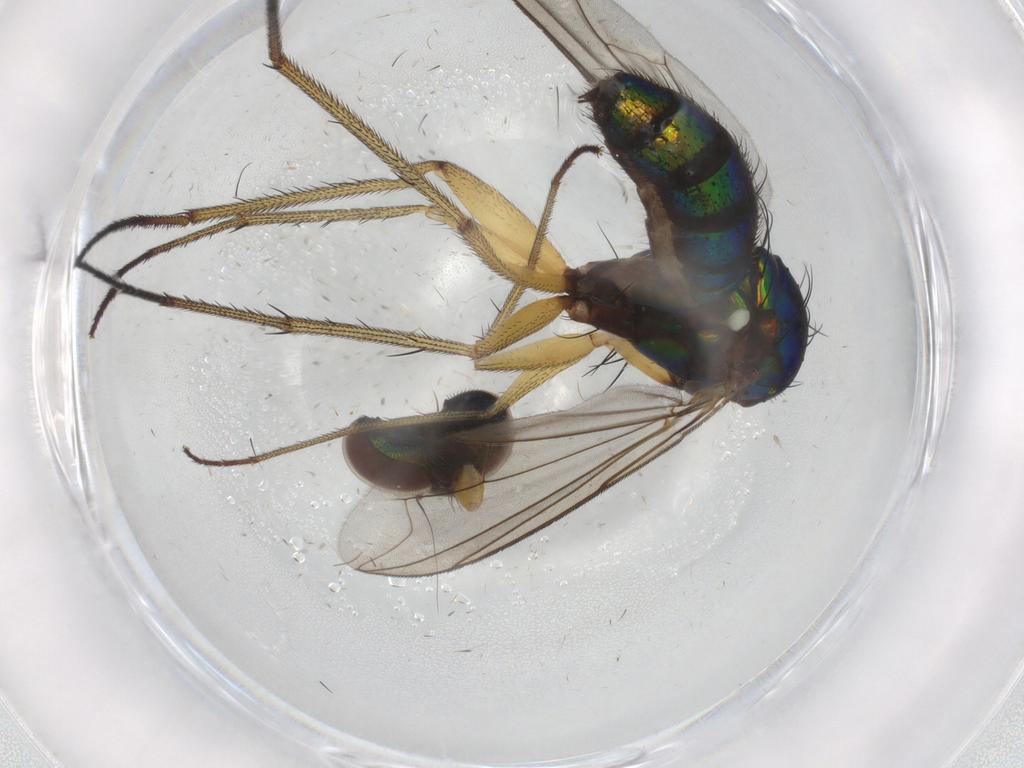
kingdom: Animalia
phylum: Arthropoda
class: Insecta
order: Diptera
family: Dolichopodidae
